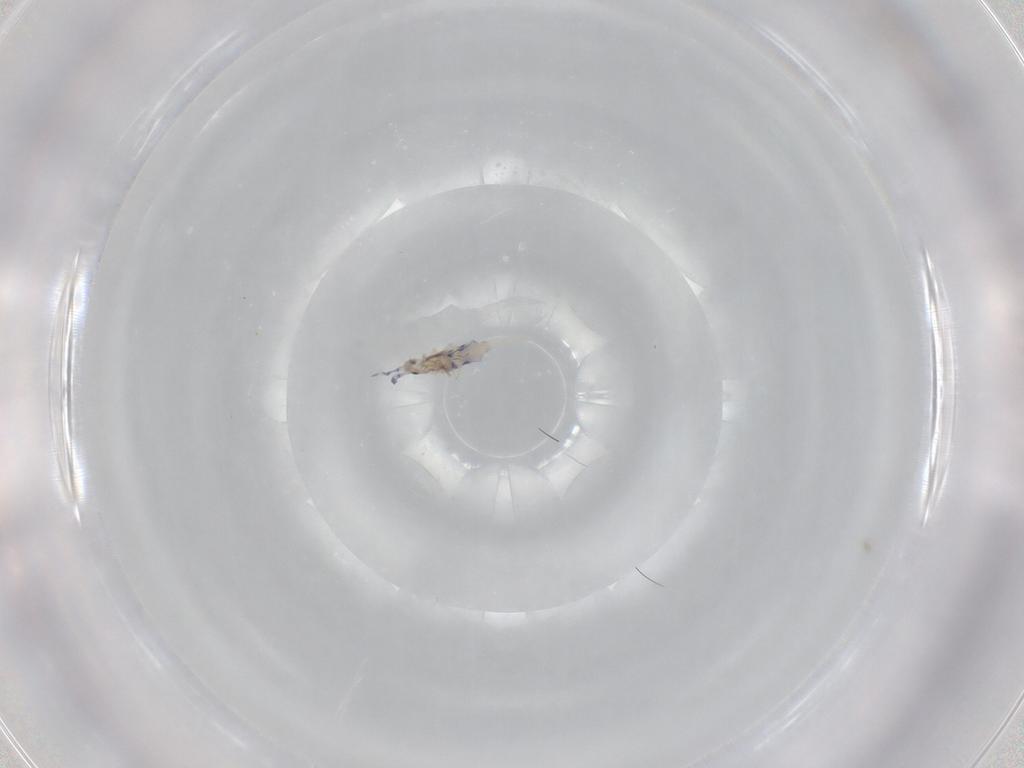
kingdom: Animalia
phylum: Arthropoda
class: Collembola
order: Entomobryomorpha
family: Entomobryidae
